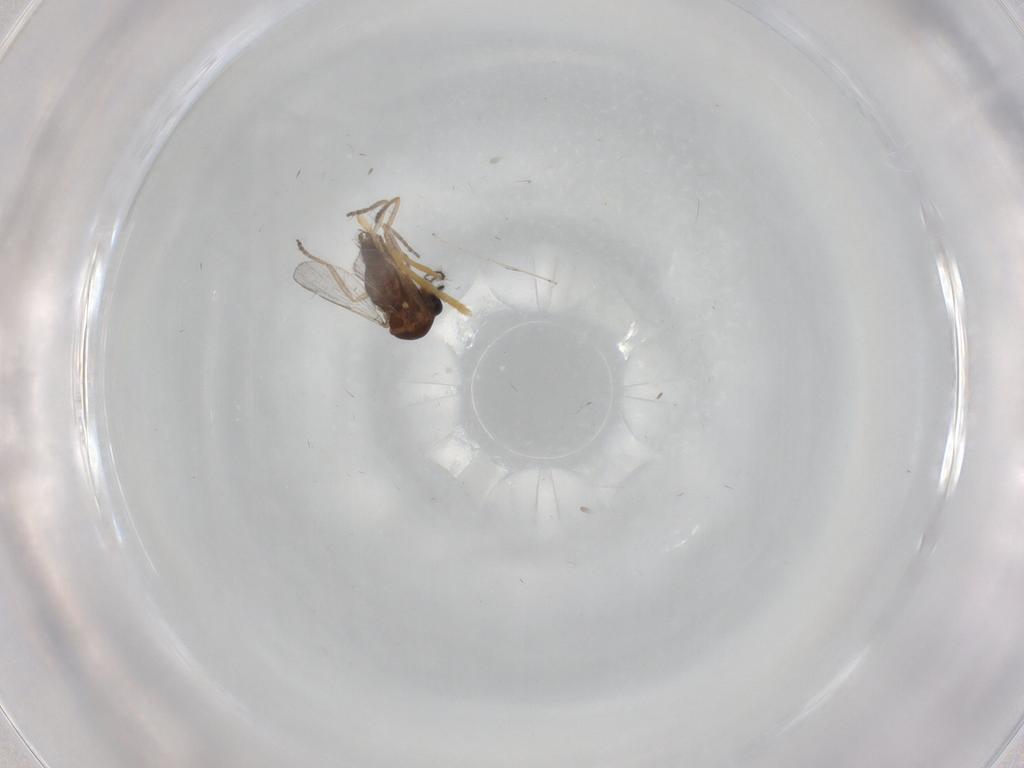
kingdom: Animalia
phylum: Arthropoda
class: Insecta
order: Diptera
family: Ceratopogonidae
